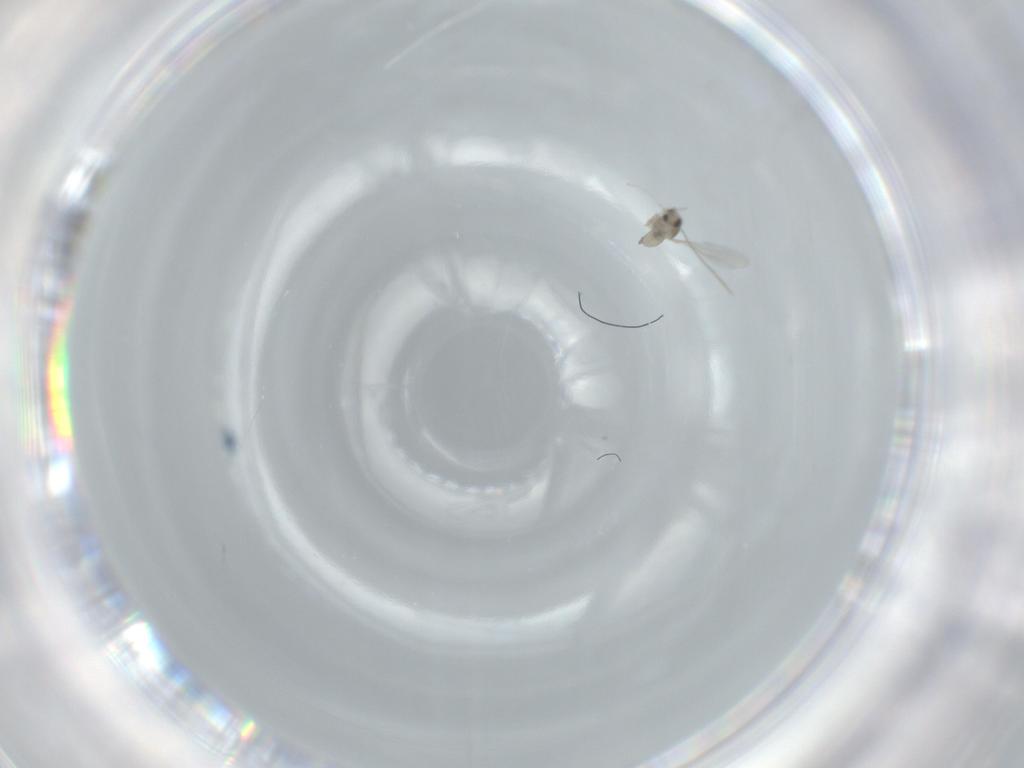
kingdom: Animalia
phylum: Arthropoda
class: Insecta
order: Diptera
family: Cecidomyiidae
